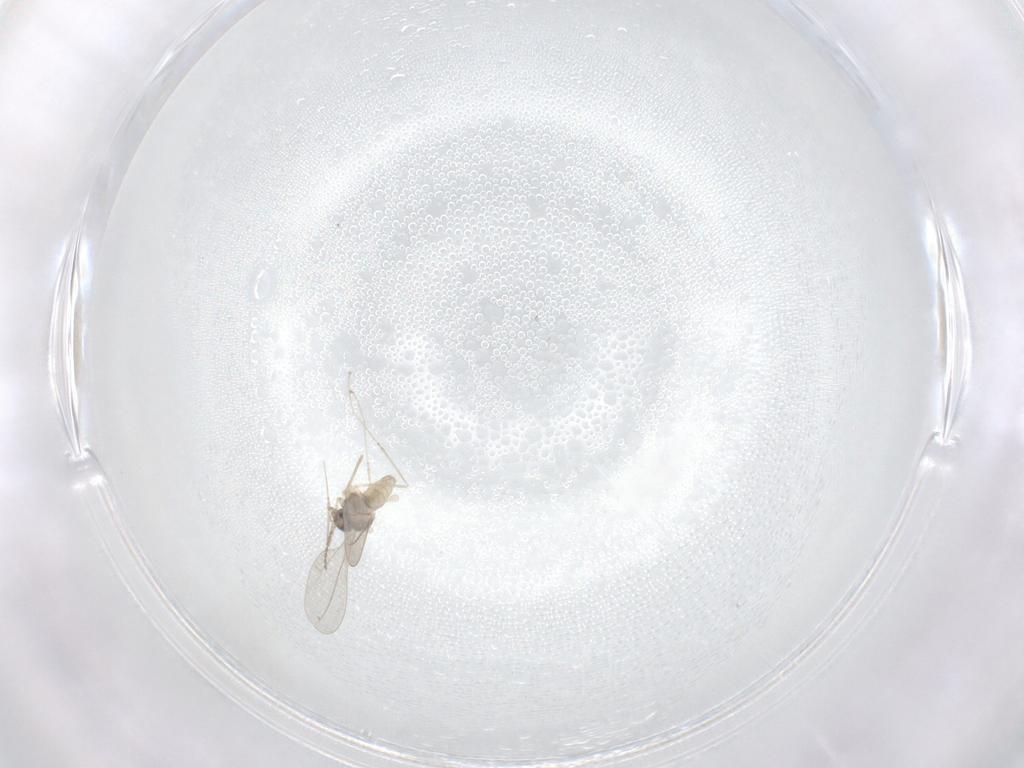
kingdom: Animalia
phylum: Arthropoda
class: Insecta
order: Diptera
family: Cecidomyiidae
